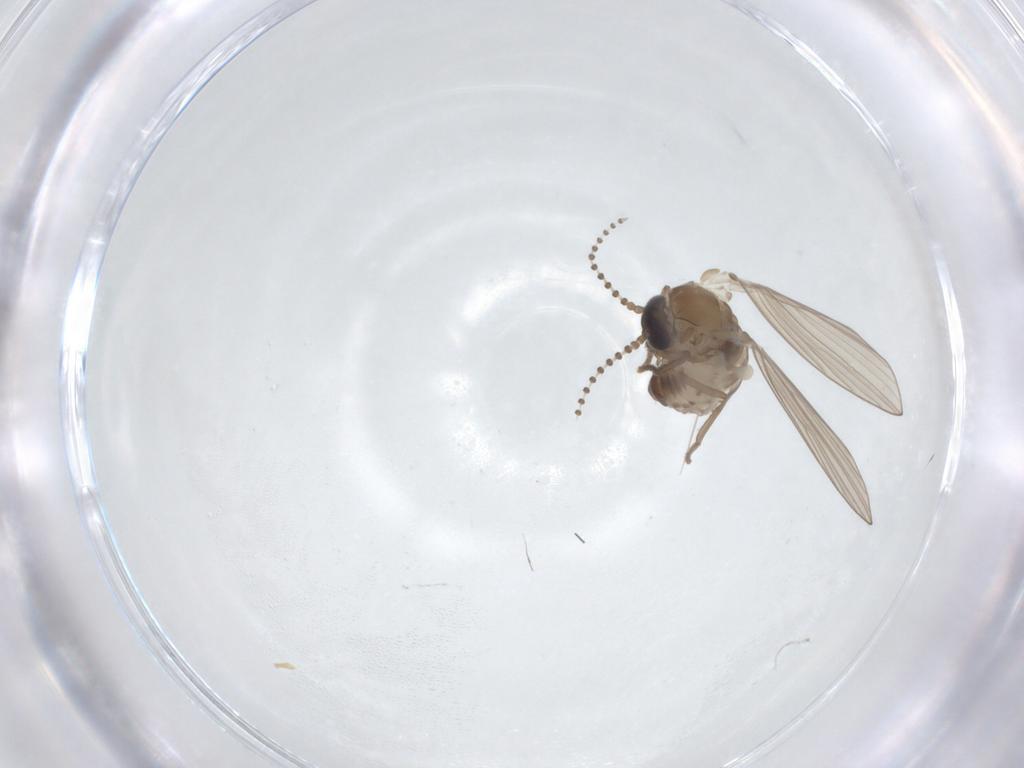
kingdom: Animalia
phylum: Arthropoda
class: Insecta
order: Diptera
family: Psychodidae
